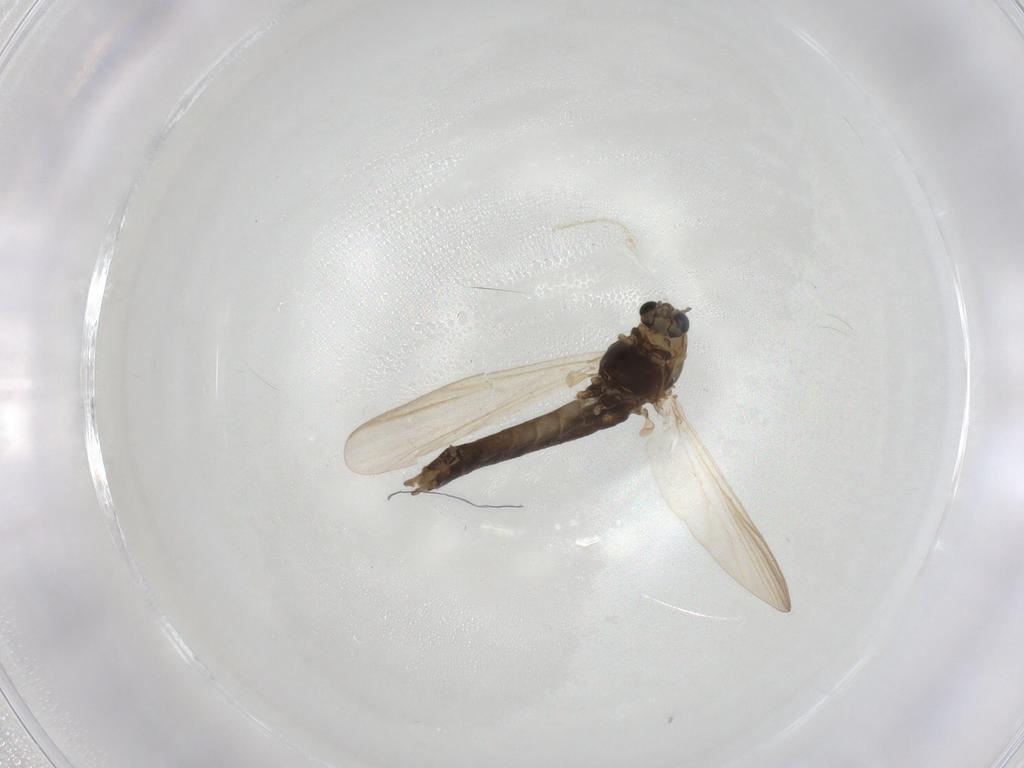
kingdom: Animalia
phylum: Arthropoda
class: Insecta
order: Diptera
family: Chironomidae
